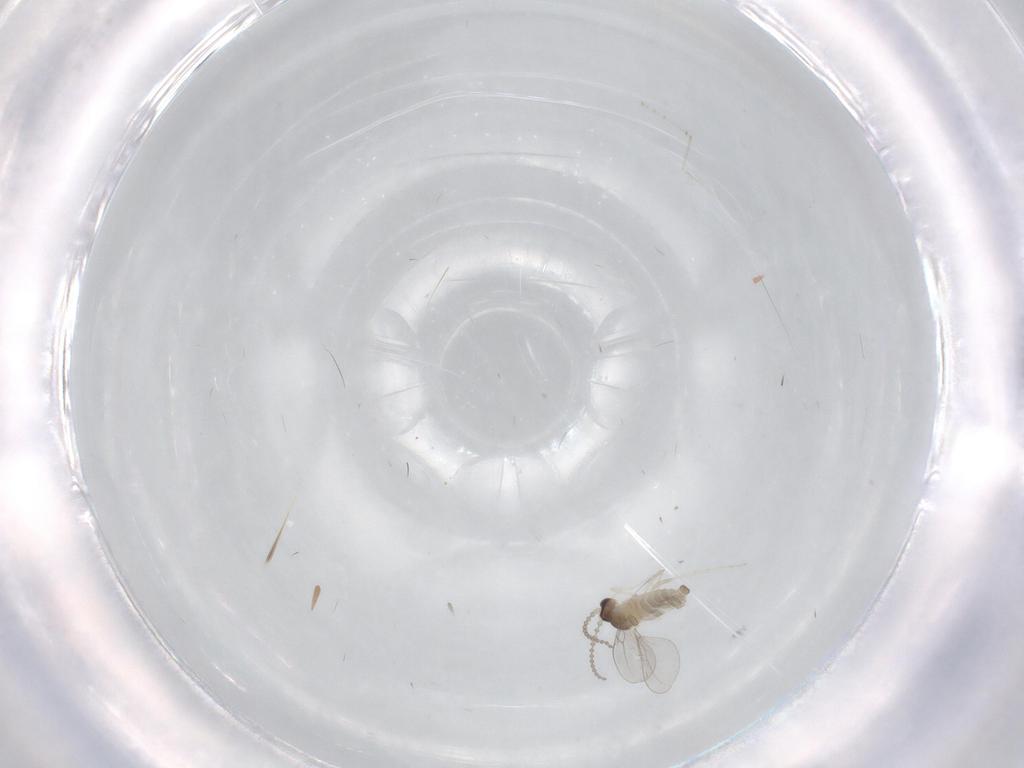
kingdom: Animalia
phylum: Arthropoda
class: Insecta
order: Diptera
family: Cecidomyiidae
